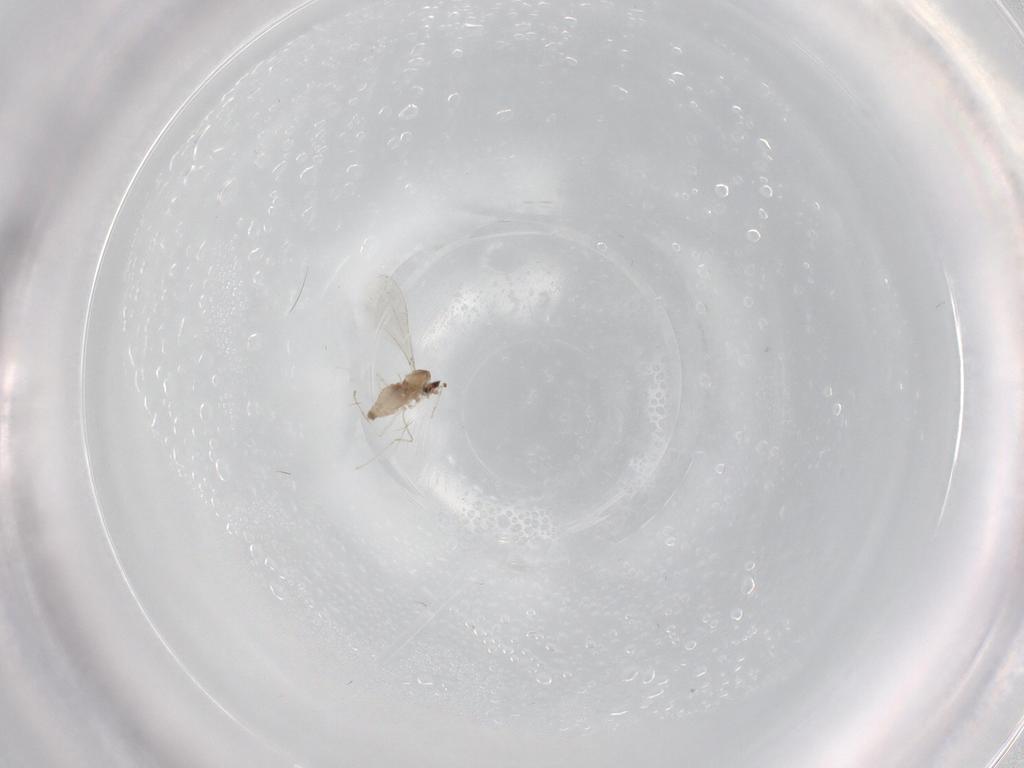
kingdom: Animalia
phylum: Arthropoda
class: Insecta
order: Diptera
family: Cecidomyiidae
